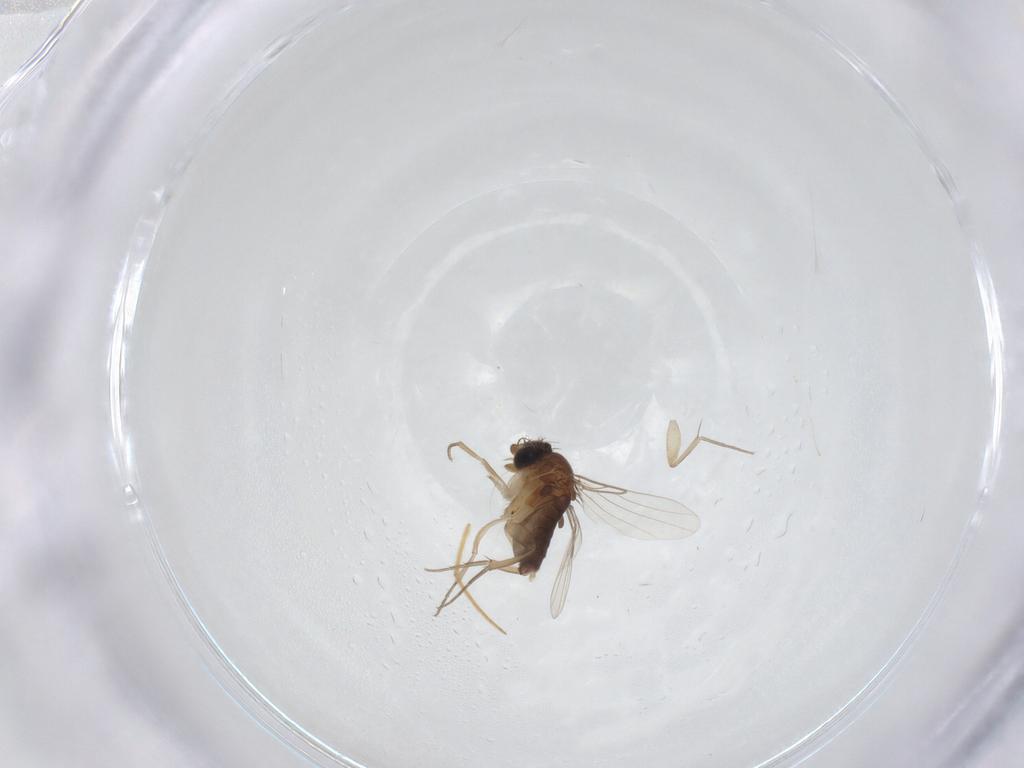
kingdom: Animalia
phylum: Arthropoda
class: Insecta
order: Diptera
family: Phoridae
